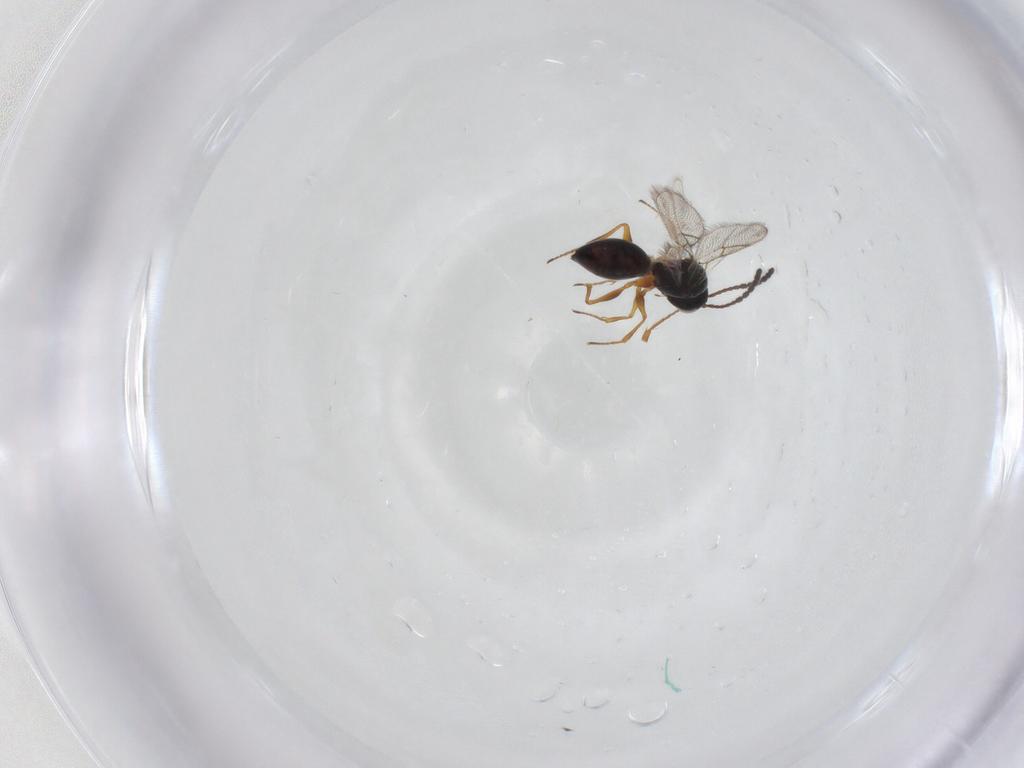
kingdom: Animalia
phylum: Arthropoda
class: Insecta
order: Hymenoptera
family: Figitidae
